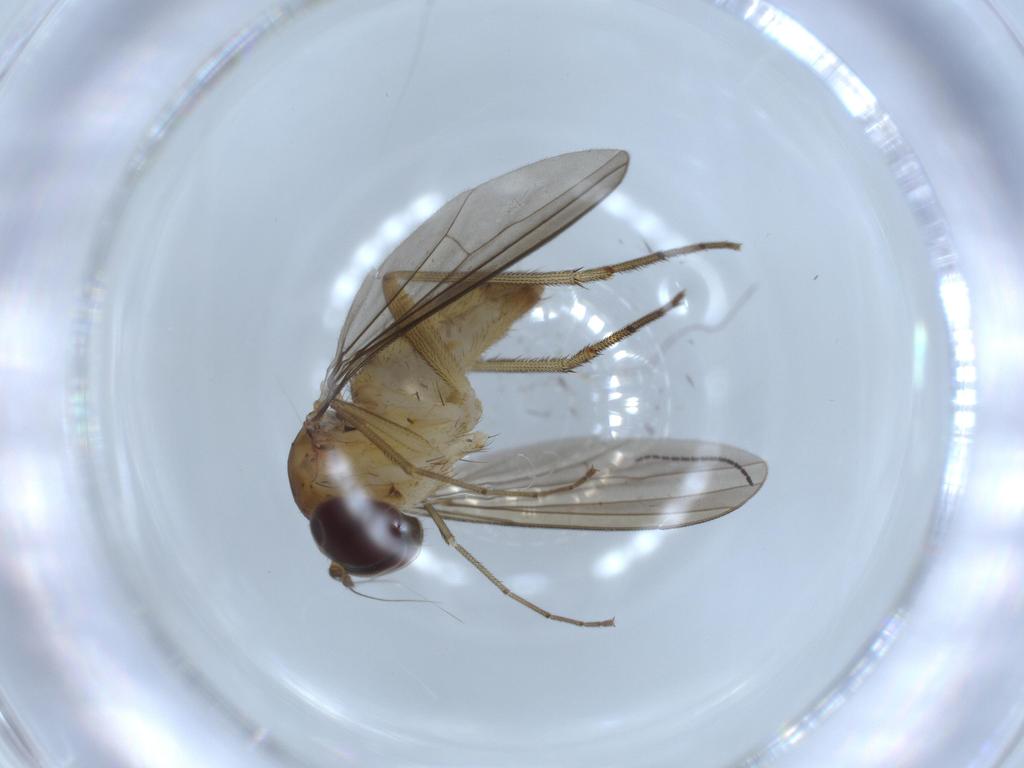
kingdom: Animalia
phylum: Arthropoda
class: Insecta
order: Diptera
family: Dolichopodidae
